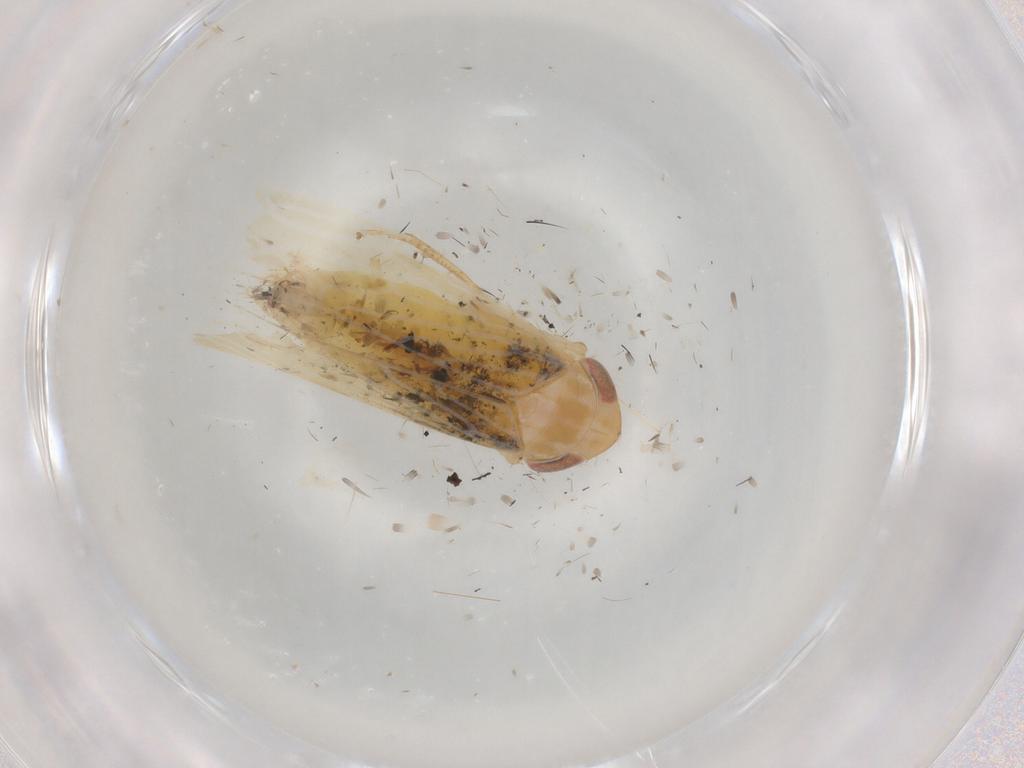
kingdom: Animalia
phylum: Arthropoda
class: Insecta
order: Hemiptera
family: Cicadellidae
